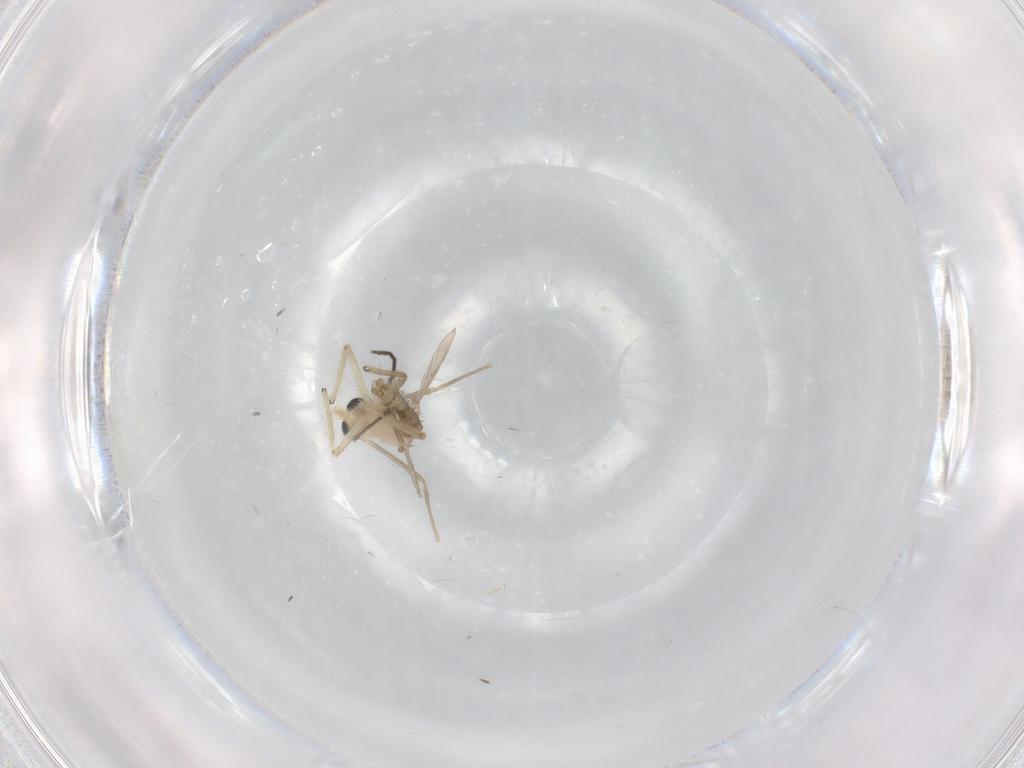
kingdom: Animalia
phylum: Arthropoda
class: Insecta
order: Diptera
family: Chironomidae
